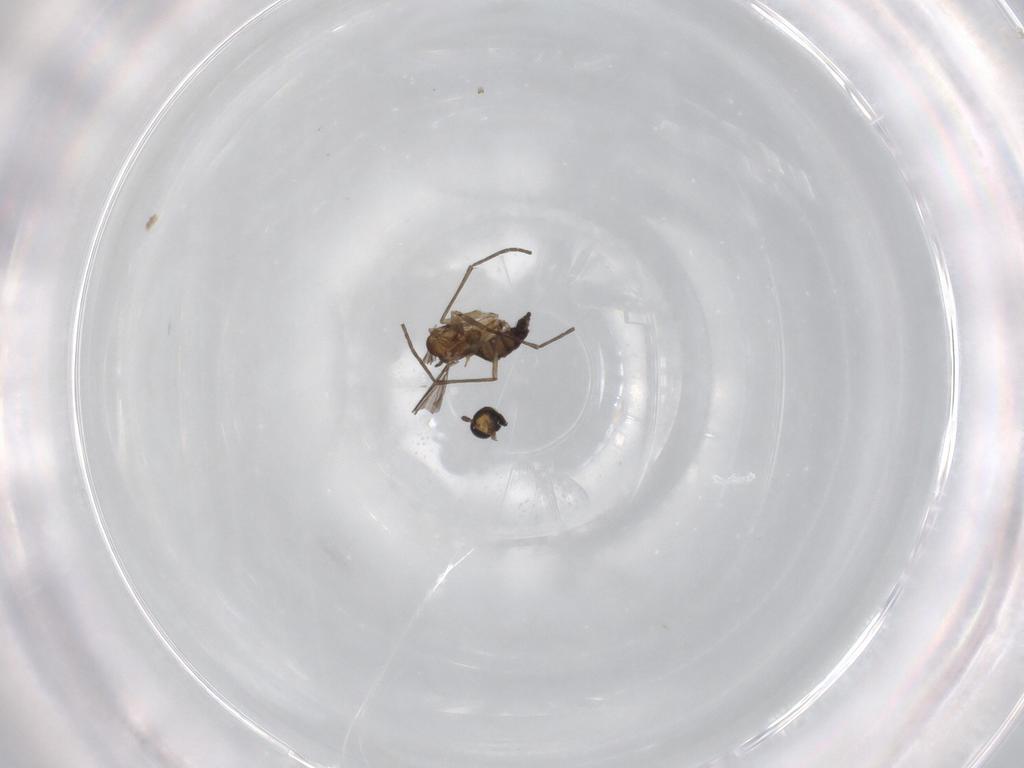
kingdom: Animalia
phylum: Arthropoda
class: Insecta
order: Diptera
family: Sciaridae
